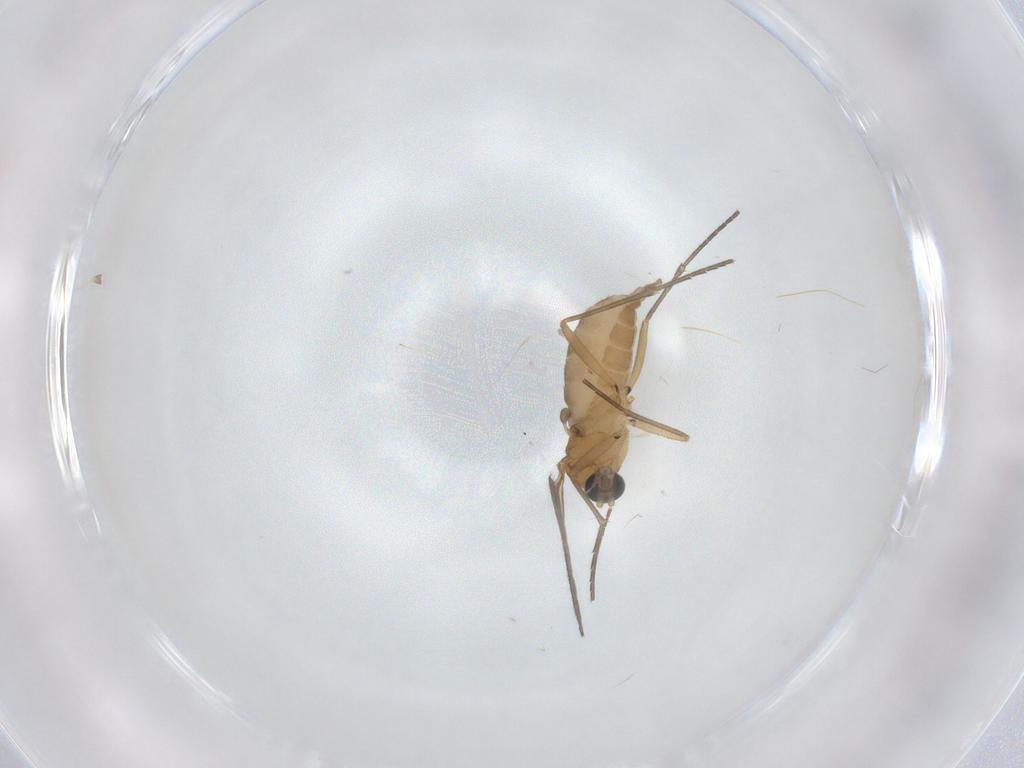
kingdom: Animalia
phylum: Arthropoda
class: Insecta
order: Diptera
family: Sciaridae
